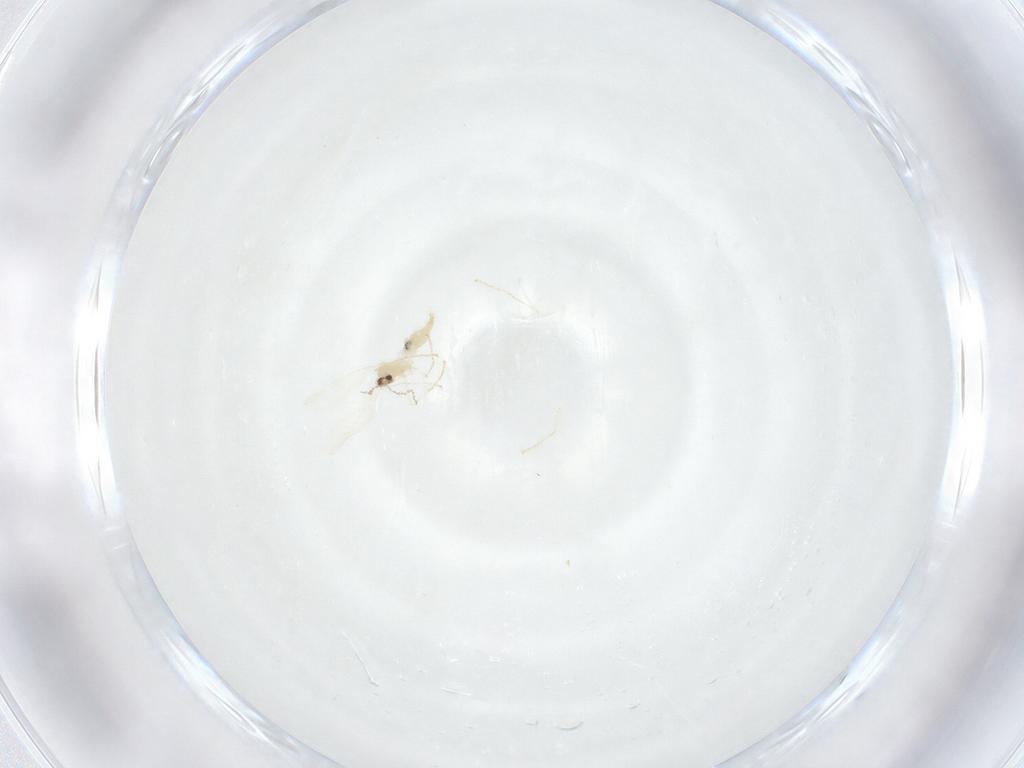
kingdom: Animalia
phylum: Arthropoda
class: Insecta
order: Diptera
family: Cecidomyiidae
